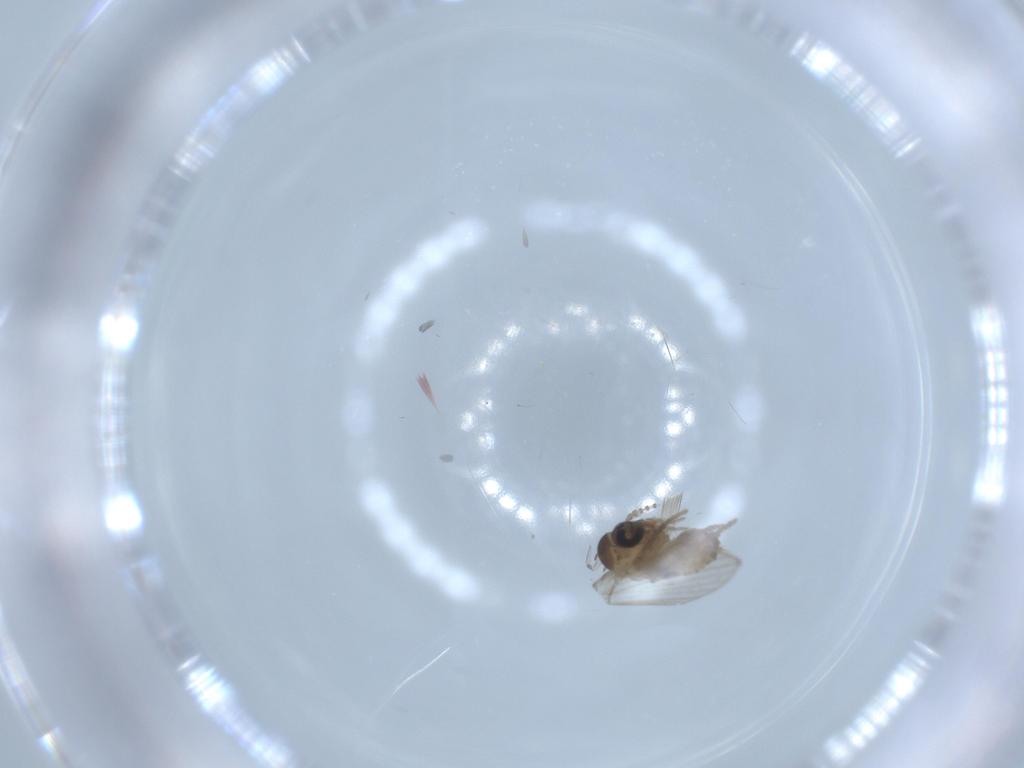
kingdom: Animalia
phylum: Arthropoda
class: Insecta
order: Diptera
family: Psychodidae
